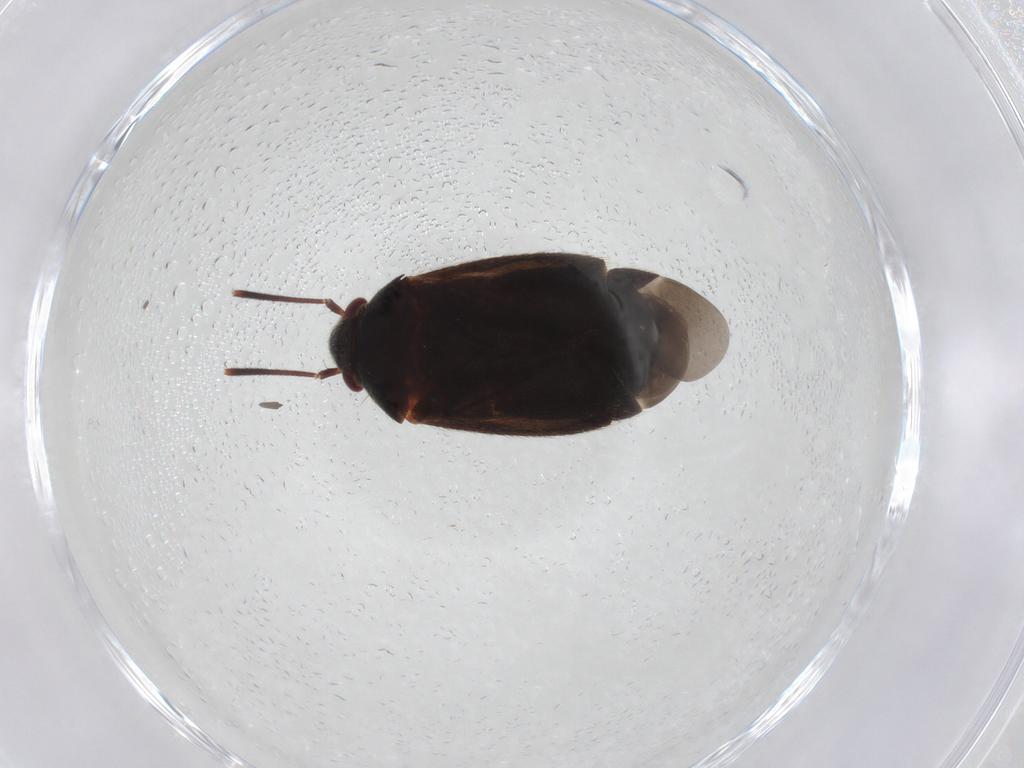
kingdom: Animalia
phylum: Arthropoda
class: Insecta
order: Hemiptera
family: Miridae
